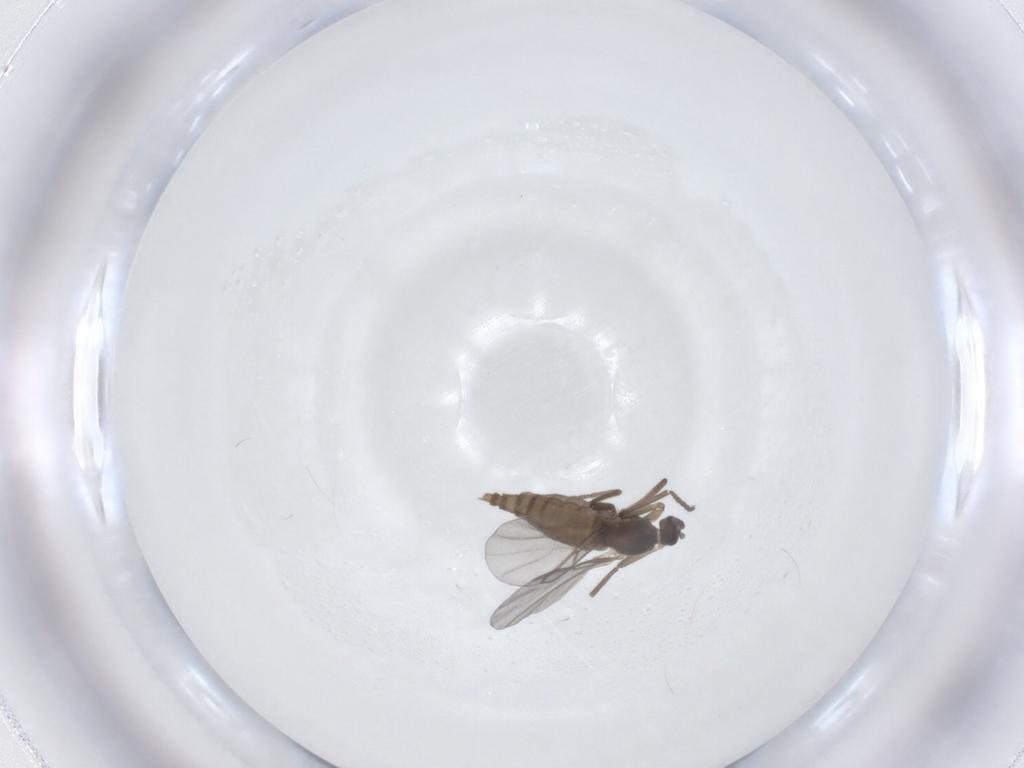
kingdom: Animalia
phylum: Arthropoda
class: Insecta
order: Diptera
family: Cecidomyiidae
